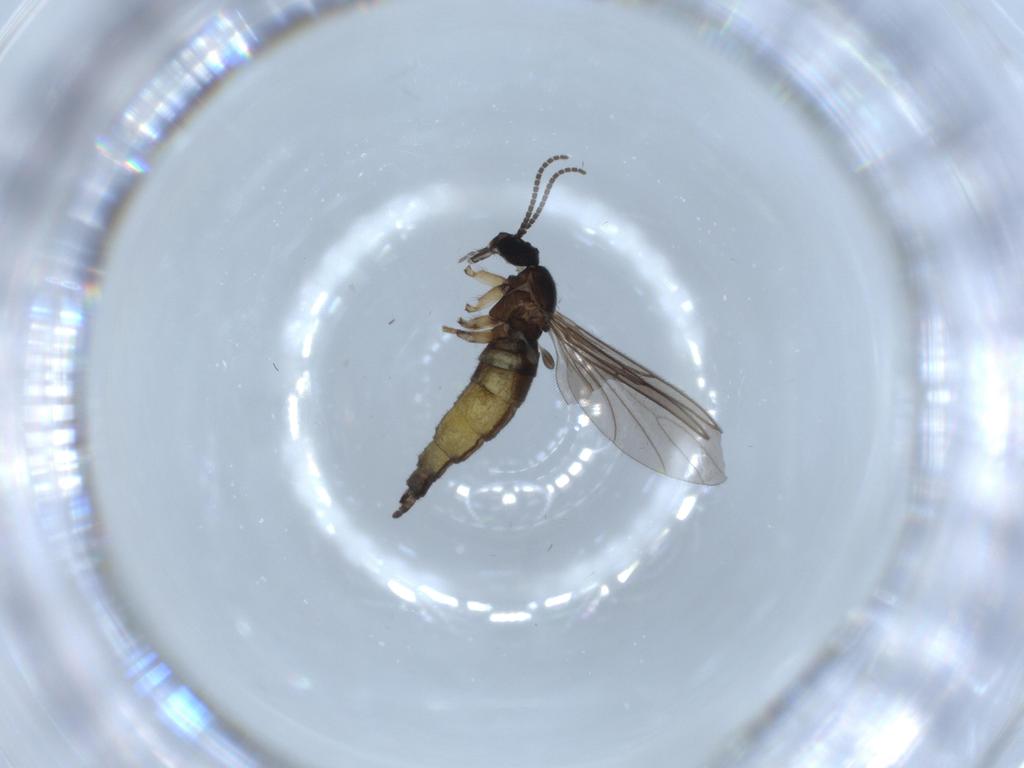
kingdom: Animalia
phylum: Arthropoda
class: Insecta
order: Diptera
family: Sciaridae
